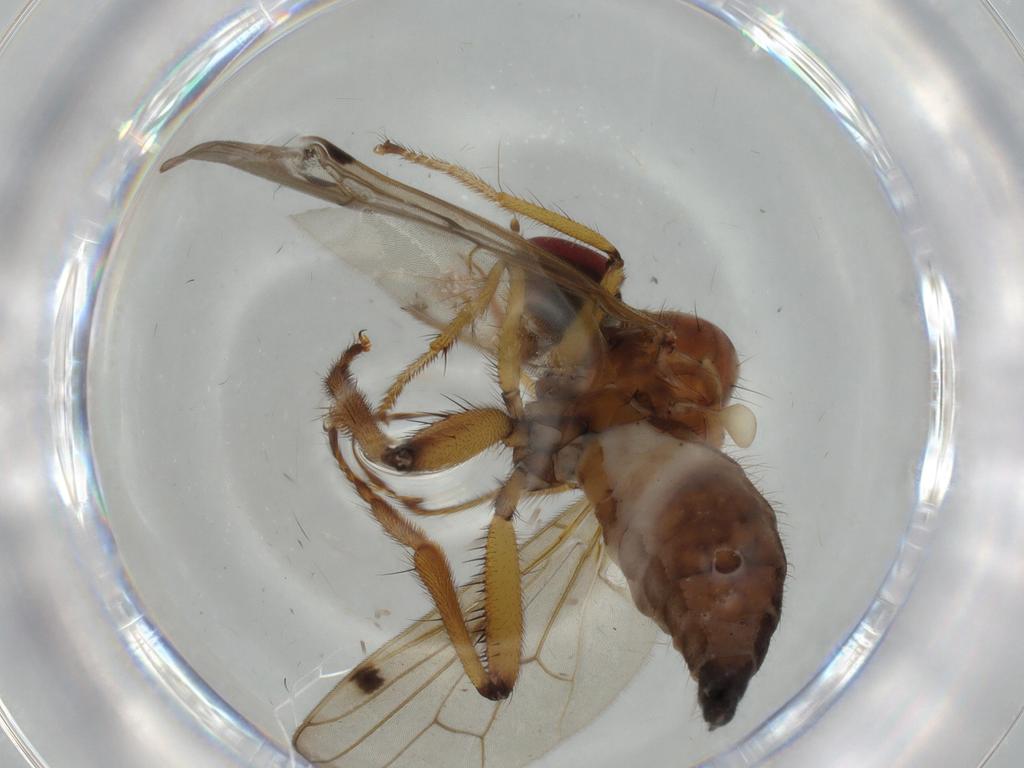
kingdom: Animalia
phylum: Arthropoda
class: Insecta
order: Diptera
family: Hybotidae
